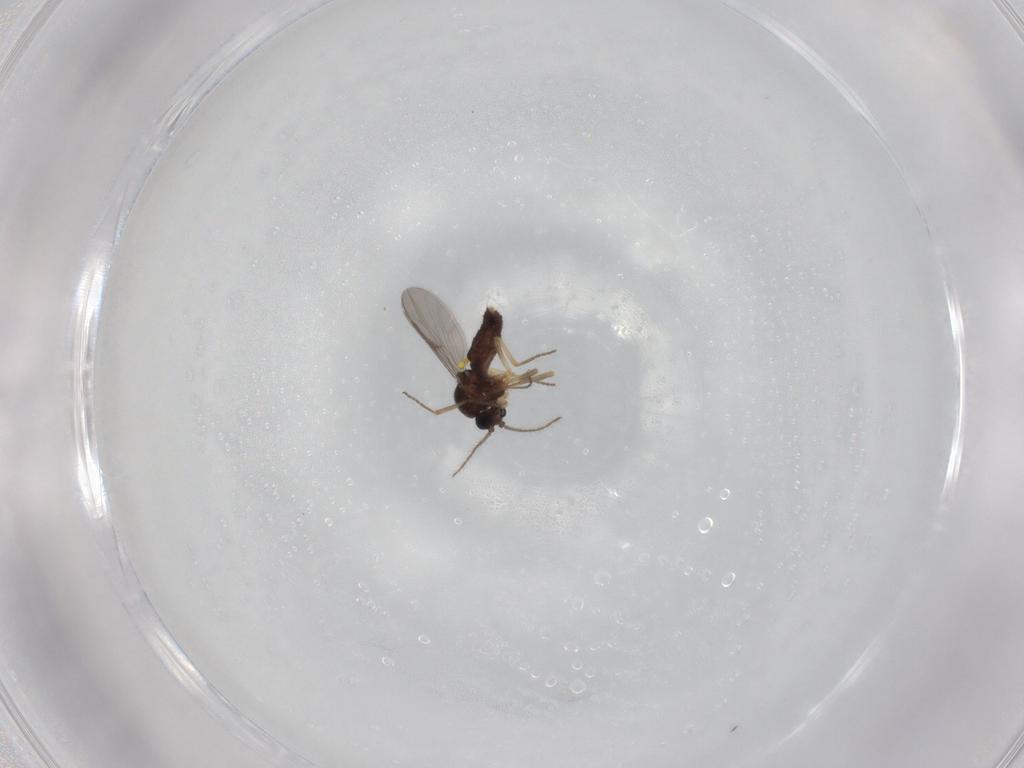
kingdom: Animalia
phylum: Arthropoda
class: Insecta
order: Diptera
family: Ceratopogonidae
